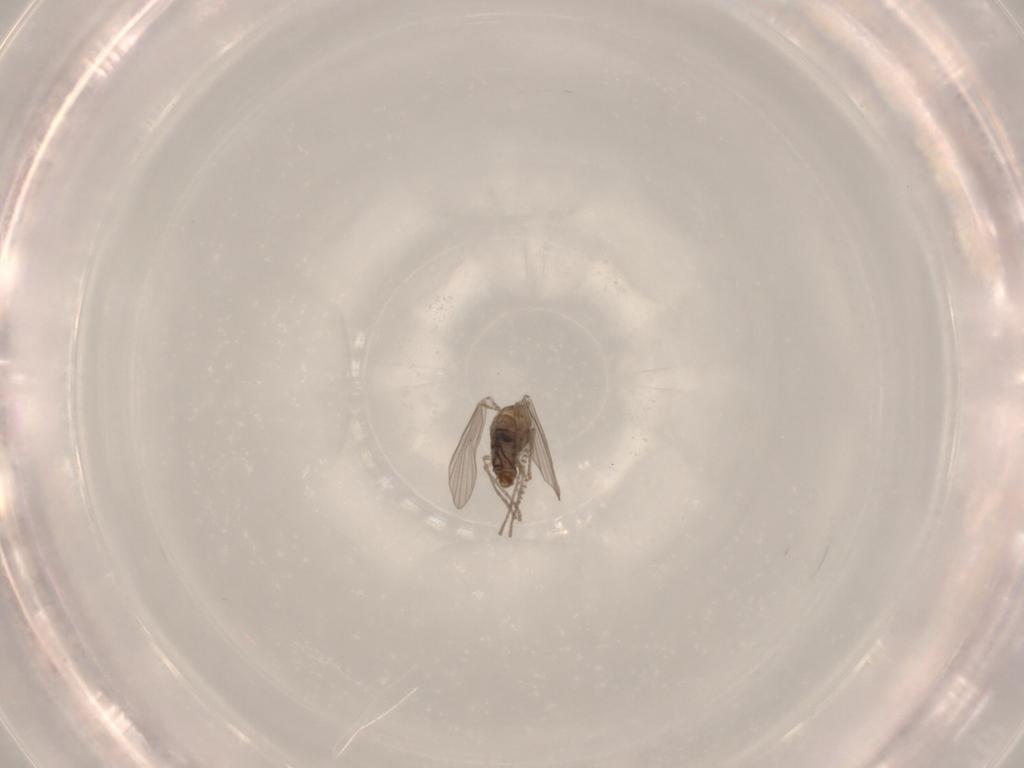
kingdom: Animalia
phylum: Arthropoda
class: Insecta
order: Diptera
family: Psychodidae
